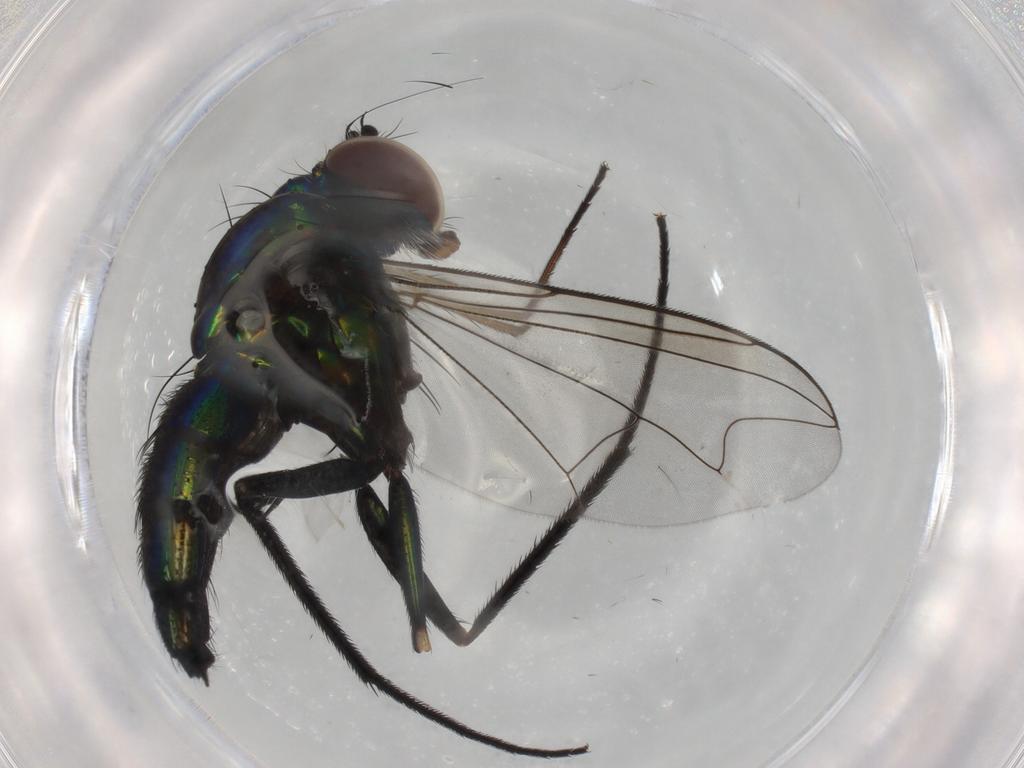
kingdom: Animalia
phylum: Arthropoda
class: Insecta
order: Diptera
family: Dolichopodidae
